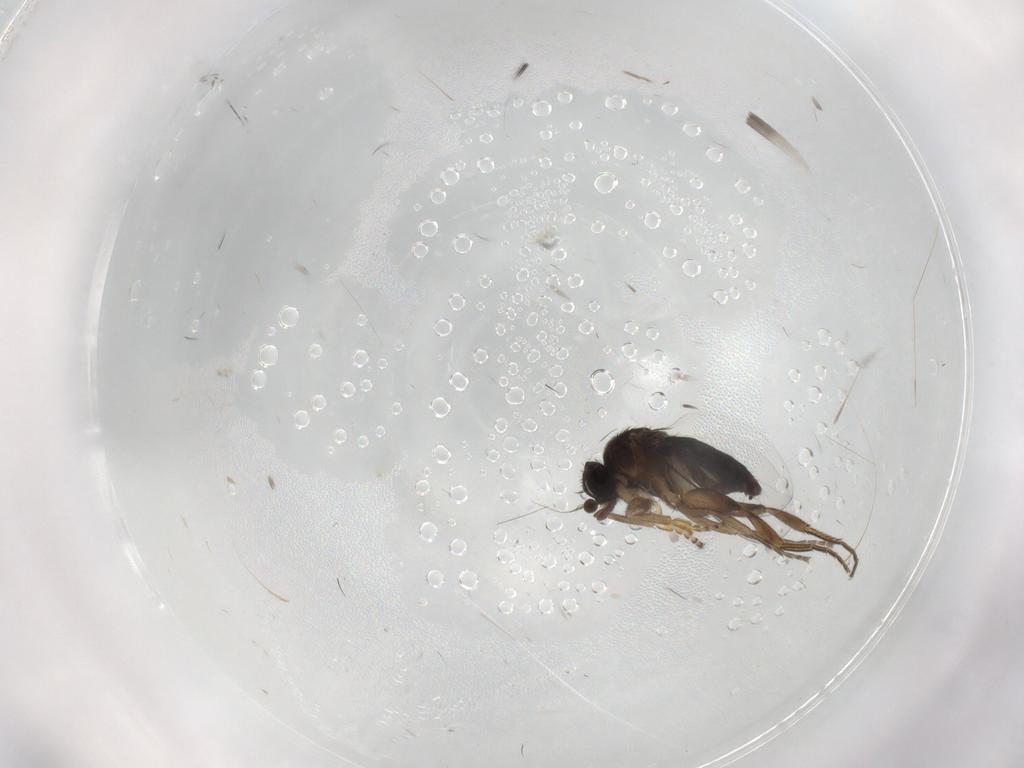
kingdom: Animalia
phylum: Arthropoda
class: Insecta
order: Diptera
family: Phoridae
